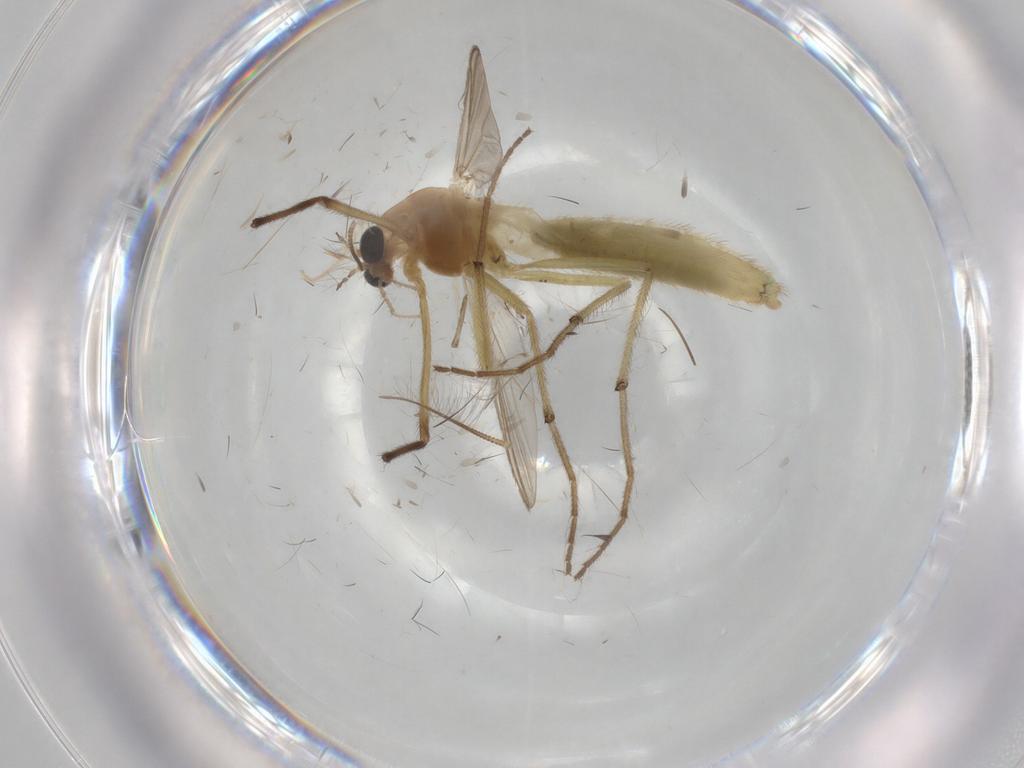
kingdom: Animalia
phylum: Arthropoda
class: Insecta
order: Diptera
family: Chironomidae
